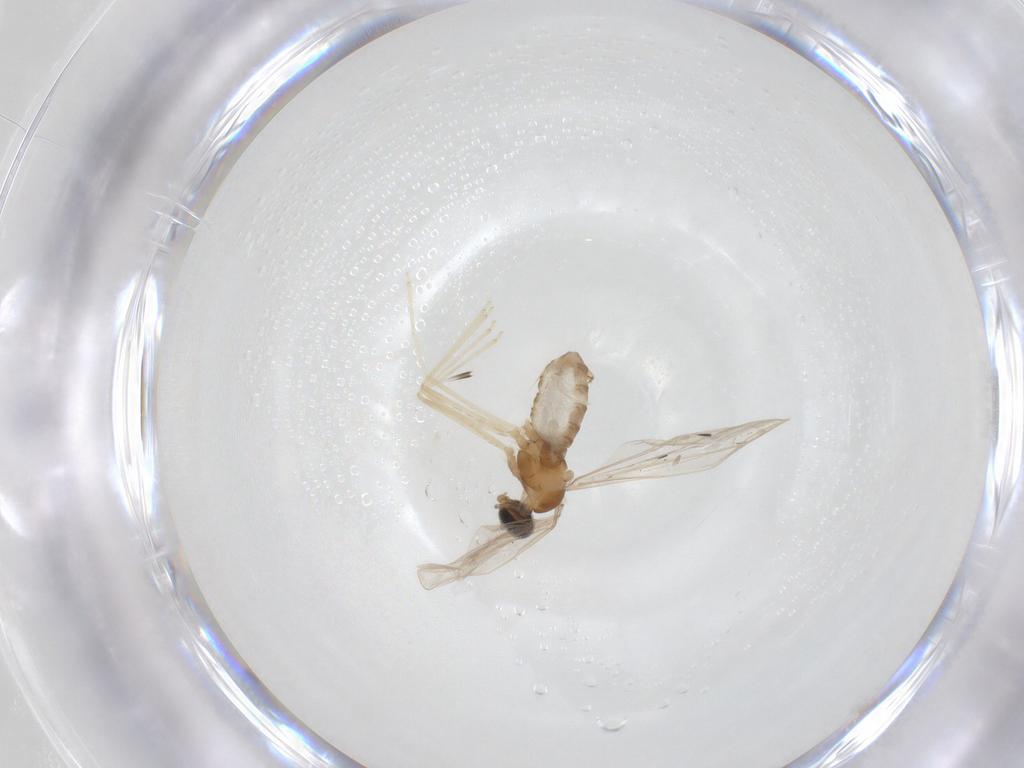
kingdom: Animalia
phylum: Arthropoda
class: Insecta
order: Diptera
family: Cecidomyiidae
